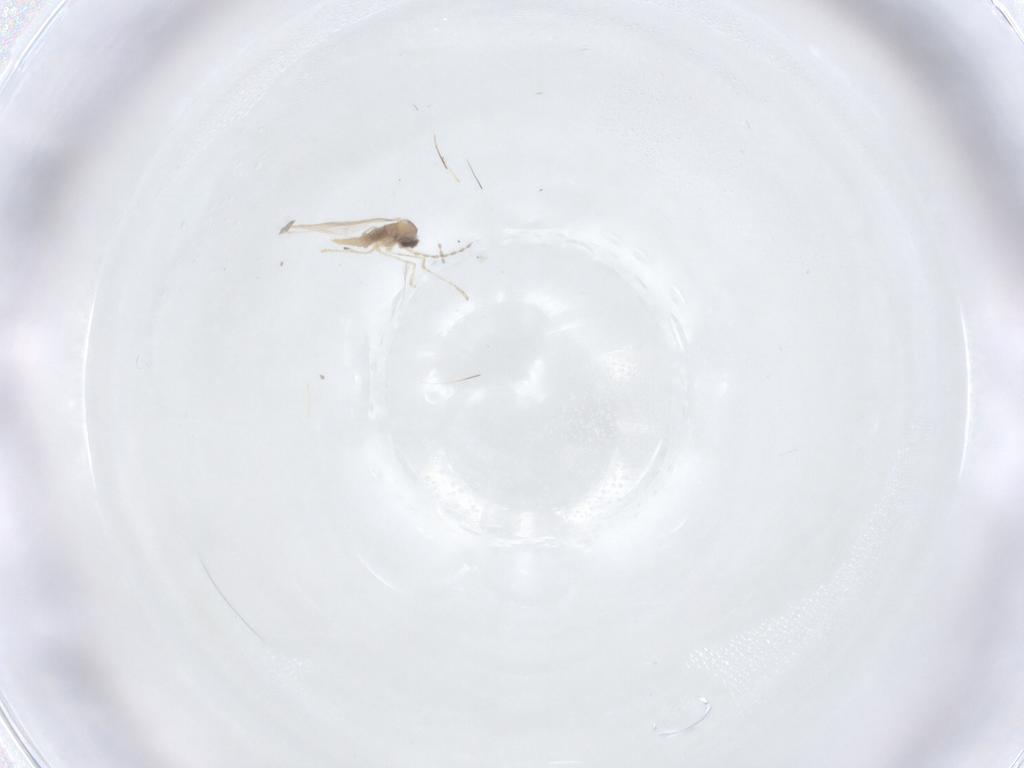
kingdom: Animalia
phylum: Arthropoda
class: Insecta
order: Diptera
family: Cecidomyiidae
